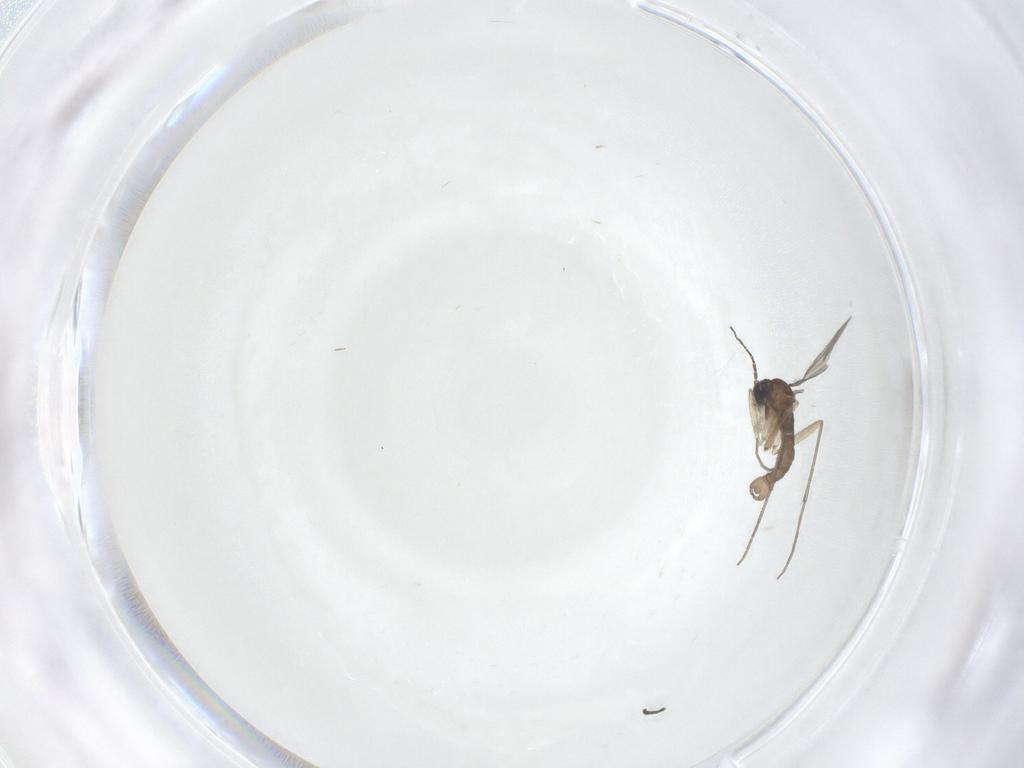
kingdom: Animalia
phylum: Arthropoda
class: Insecta
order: Diptera
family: Sciaridae
